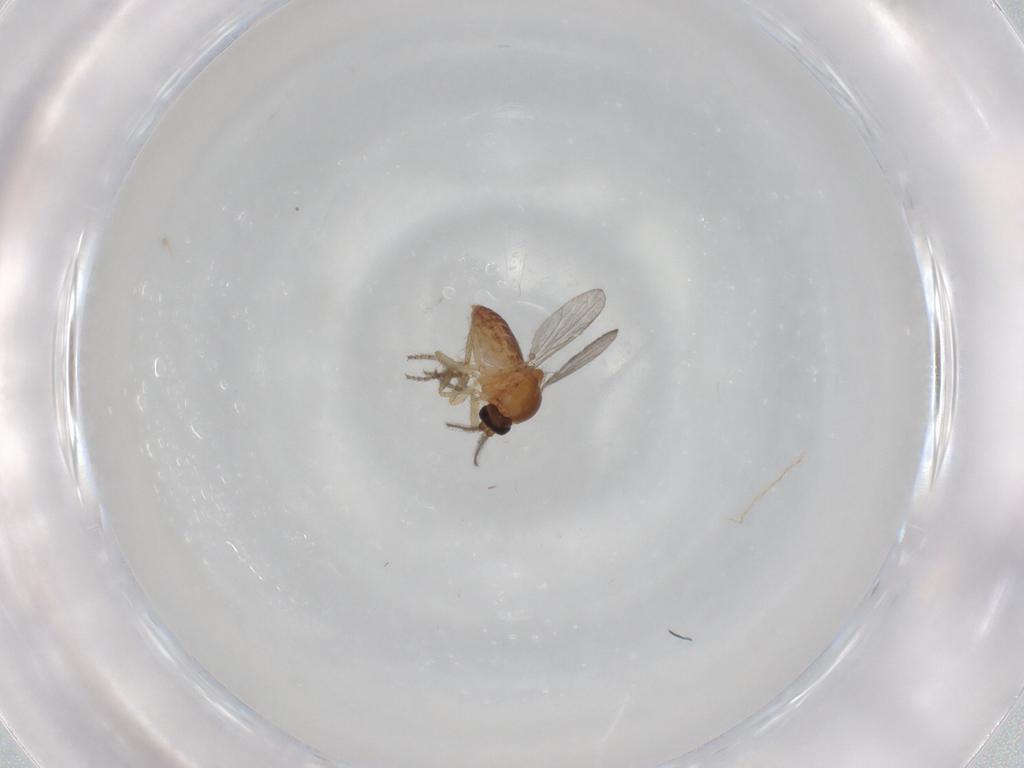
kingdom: Animalia
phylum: Arthropoda
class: Insecta
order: Diptera
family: Ceratopogonidae
